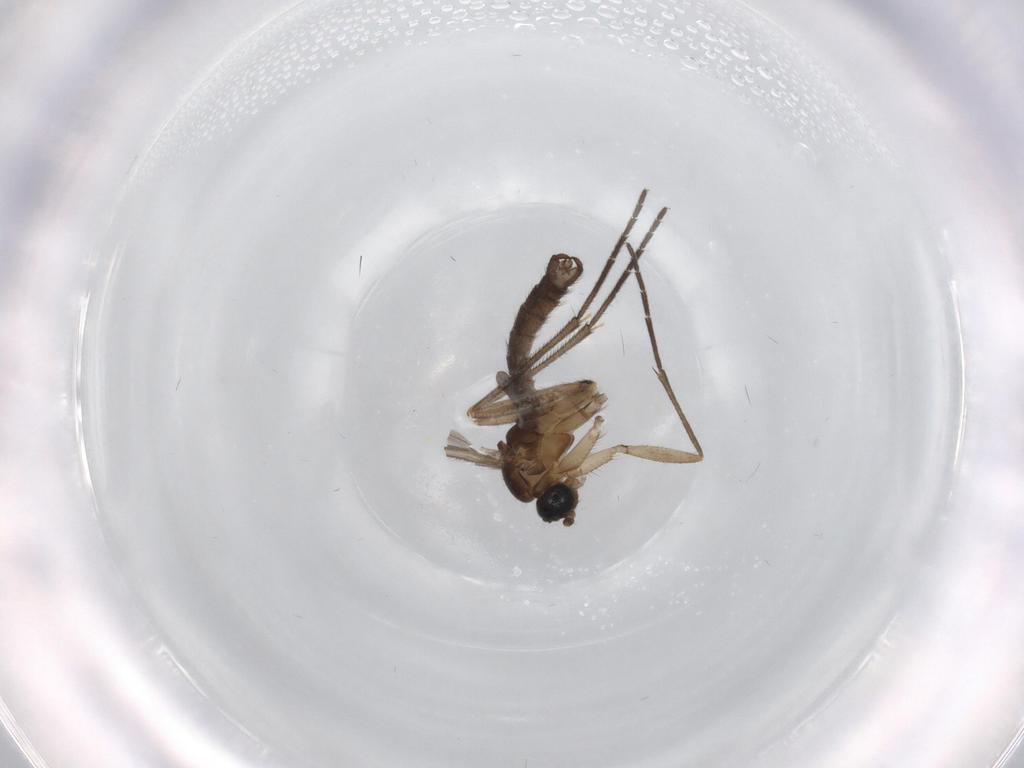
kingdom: Animalia
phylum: Arthropoda
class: Insecta
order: Diptera
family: Sciaridae
